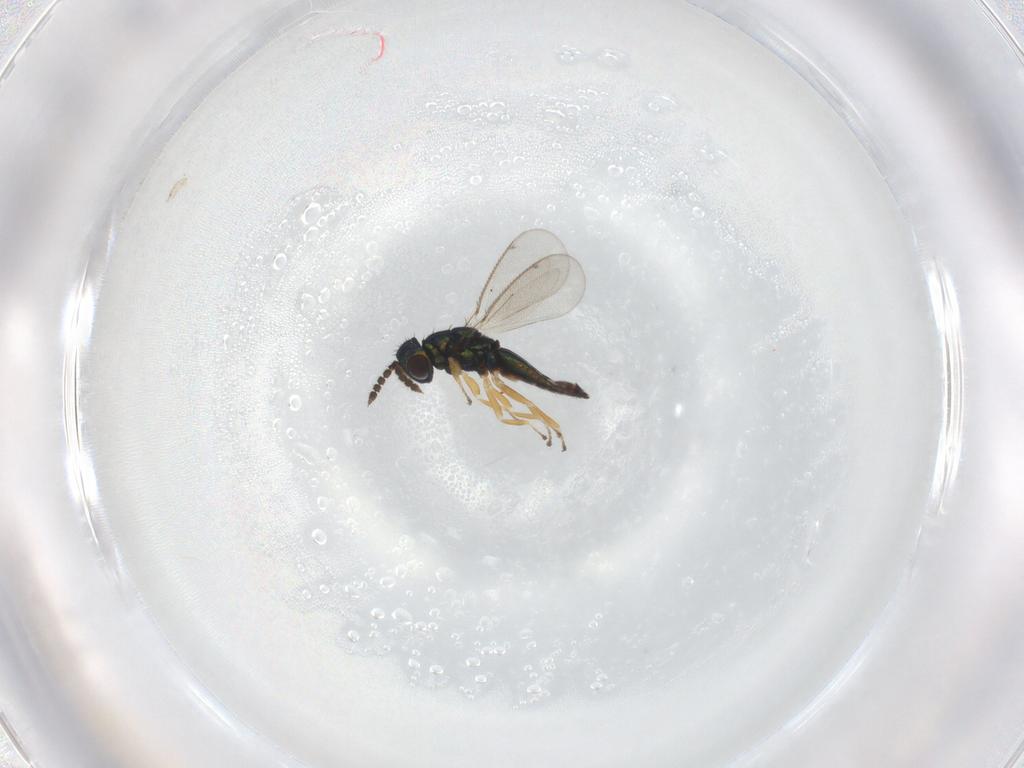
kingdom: Animalia
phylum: Arthropoda
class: Insecta
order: Hymenoptera
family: Eulophidae
